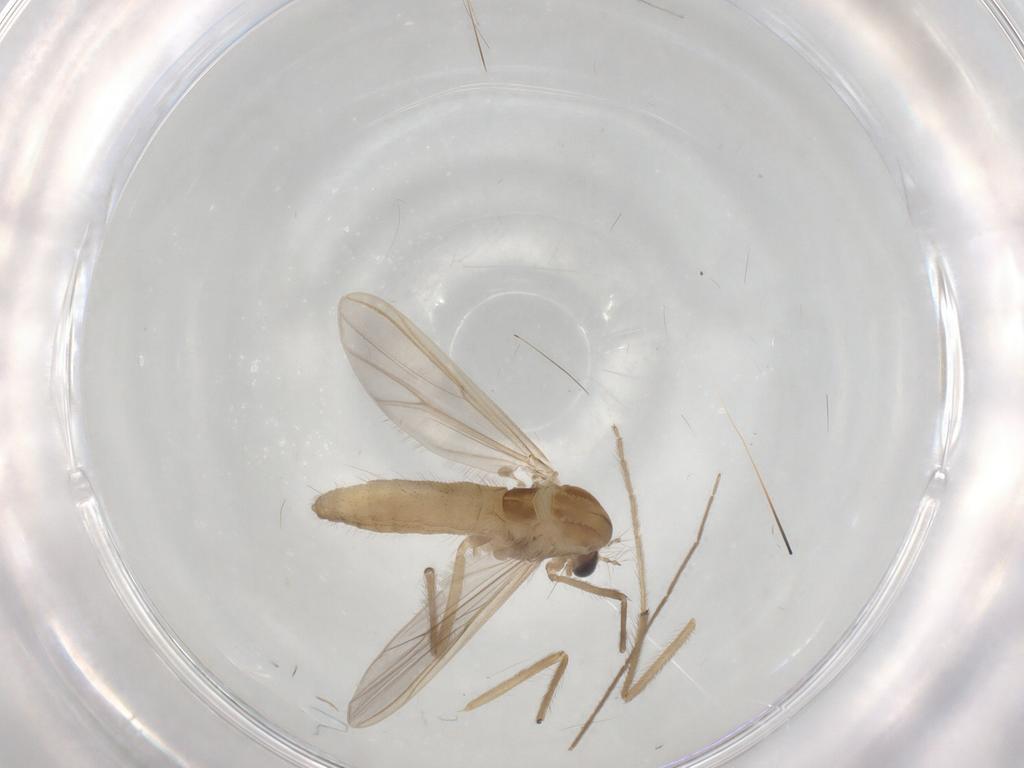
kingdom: Animalia
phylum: Arthropoda
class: Insecta
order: Diptera
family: Chironomidae
